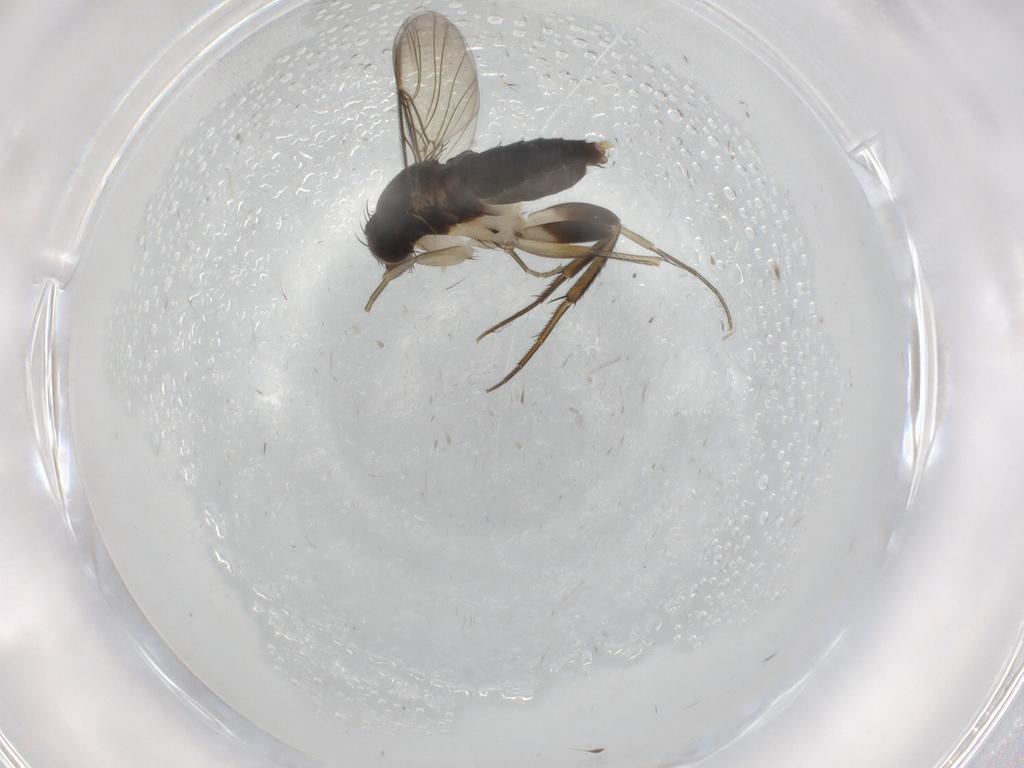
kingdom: Animalia
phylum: Arthropoda
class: Insecta
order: Diptera
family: Phoridae
